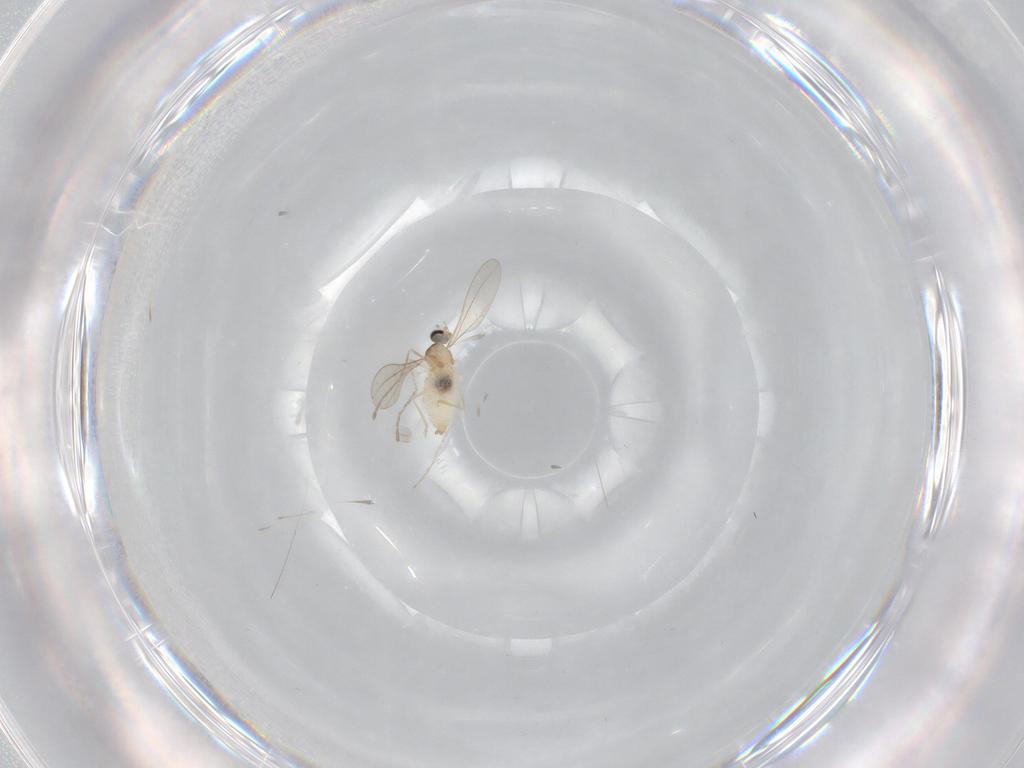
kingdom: Animalia
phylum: Arthropoda
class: Insecta
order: Diptera
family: Cecidomyiidae
